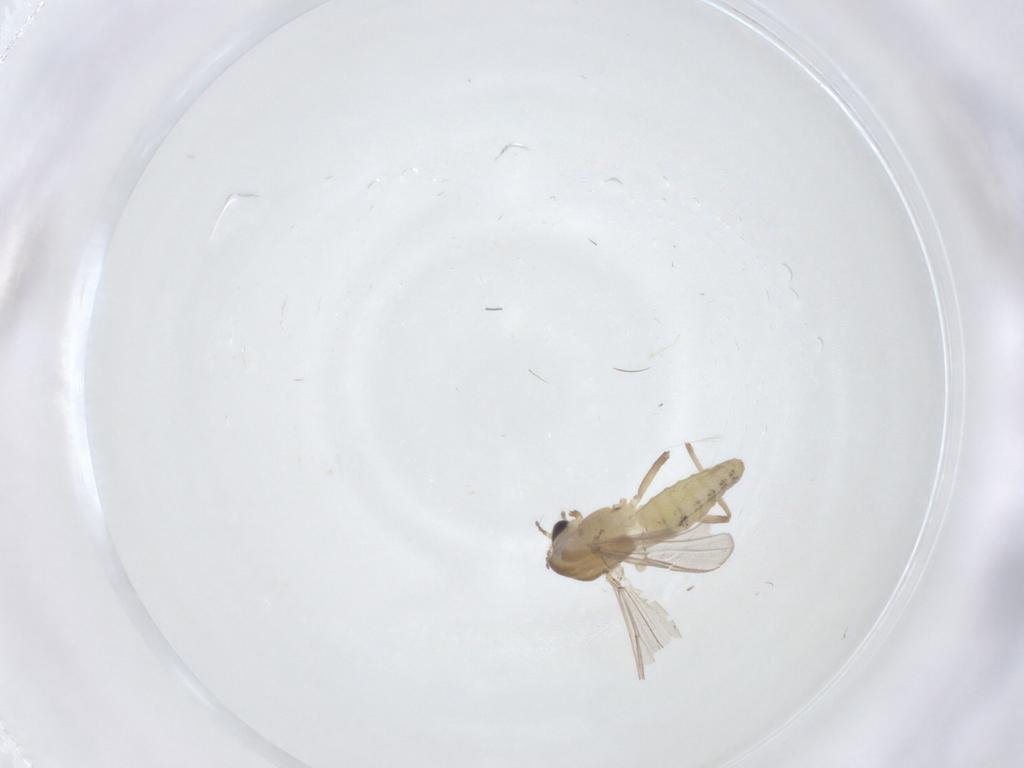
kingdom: Animalia
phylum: Arthropoda
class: Insecta
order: Diptera
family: Chironomidae
